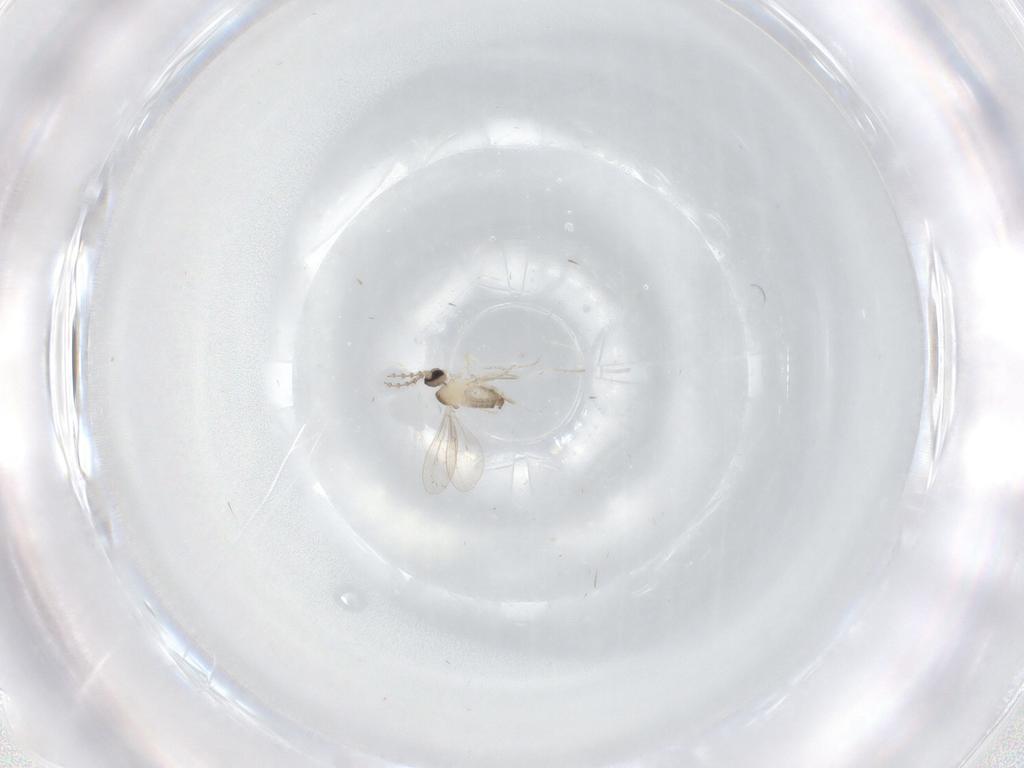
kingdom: Animalia
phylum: Arthropoda
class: Insecta
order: Diptera
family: Cecidomyiidae
